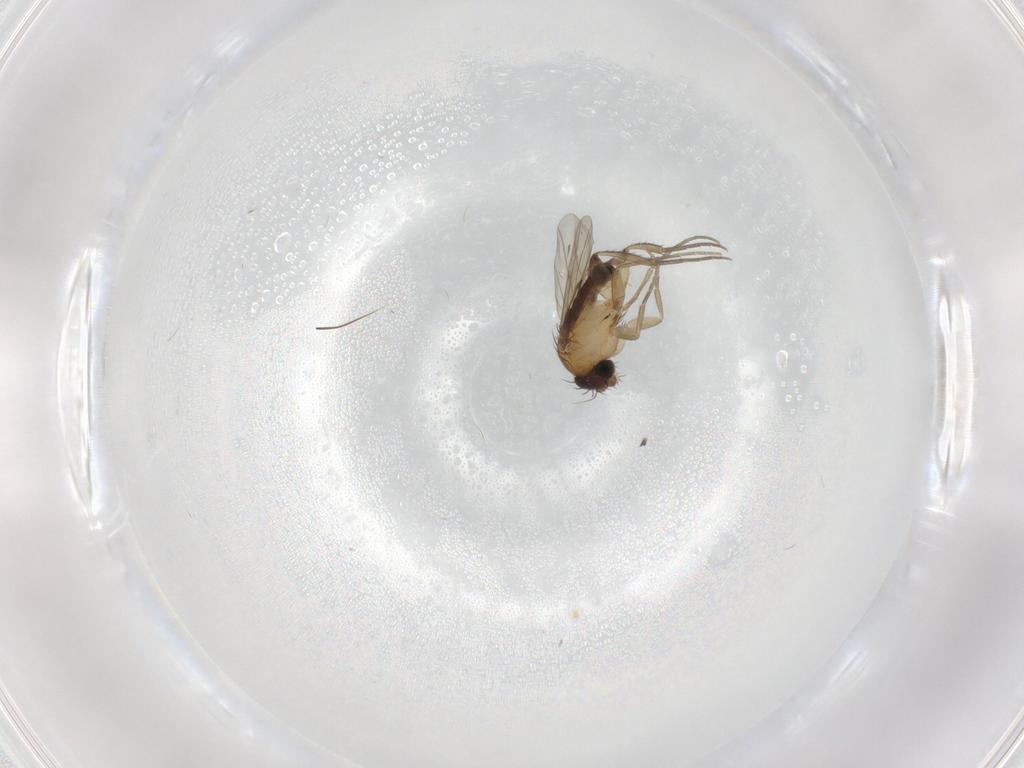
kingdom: Animalia
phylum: Arthropoda
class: Insecta
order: Diptera
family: Phoridae
